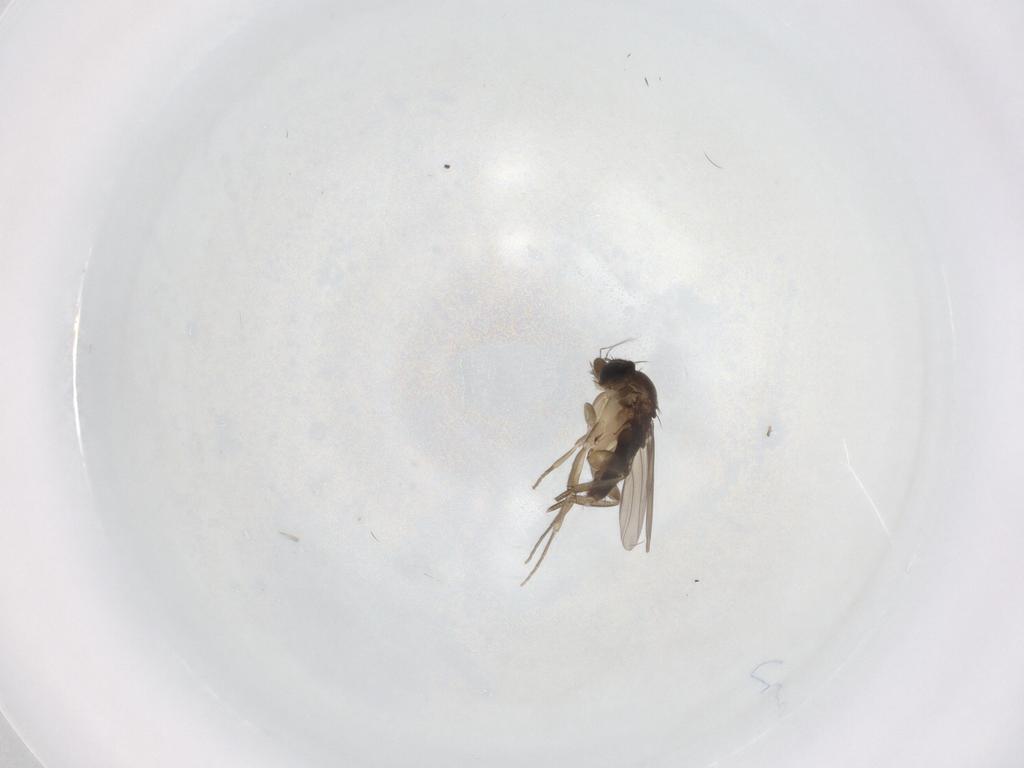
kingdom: Animalia
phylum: Arthropoda
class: Insecta
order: Diptera
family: Phoridae
